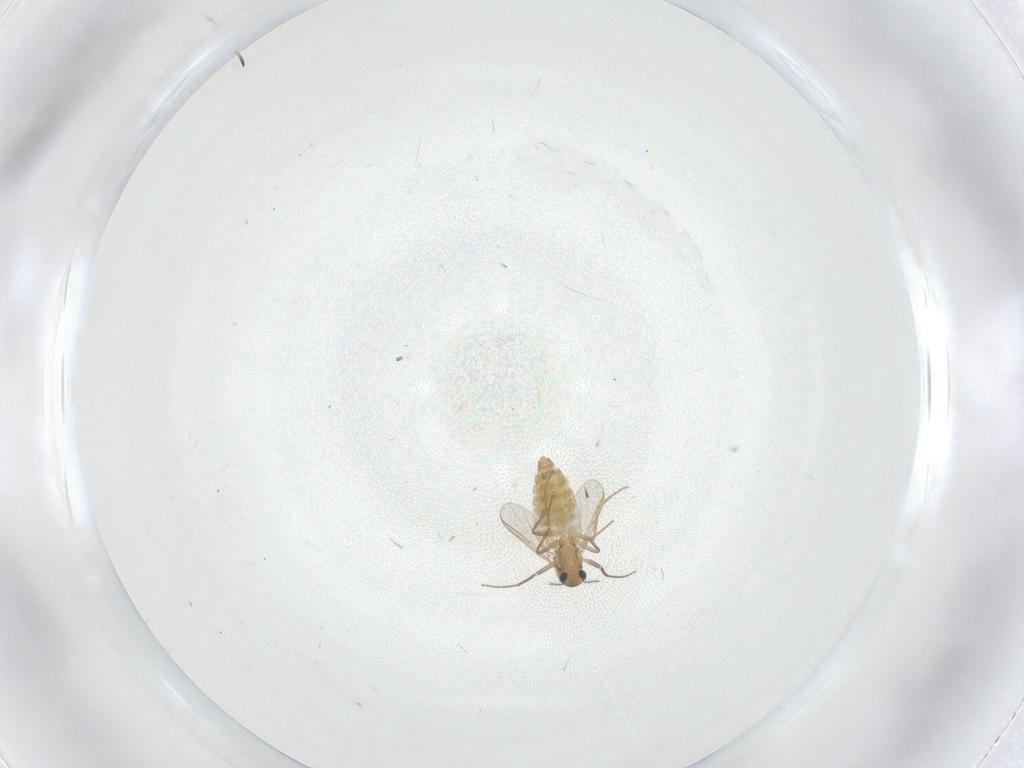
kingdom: Animalia
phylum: Arthropoda
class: Insecta
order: Diptera
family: Chironomidae
